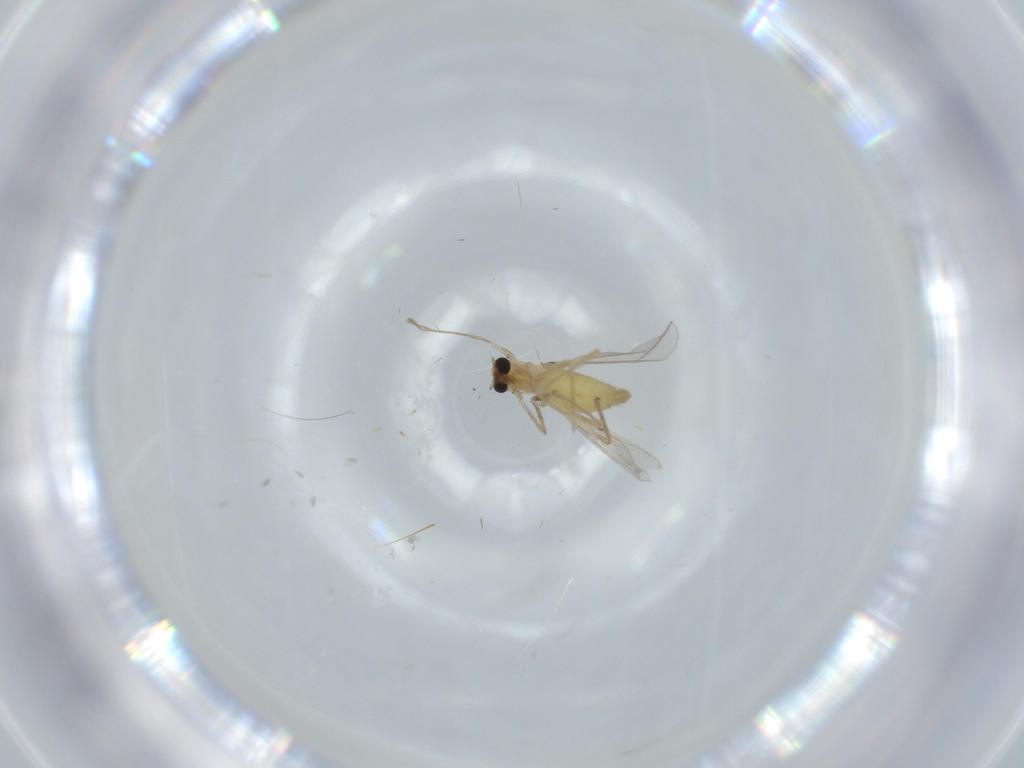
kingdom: Animalia
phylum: Arthropoda
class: Insecta
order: Diptera
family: Chironomidae
